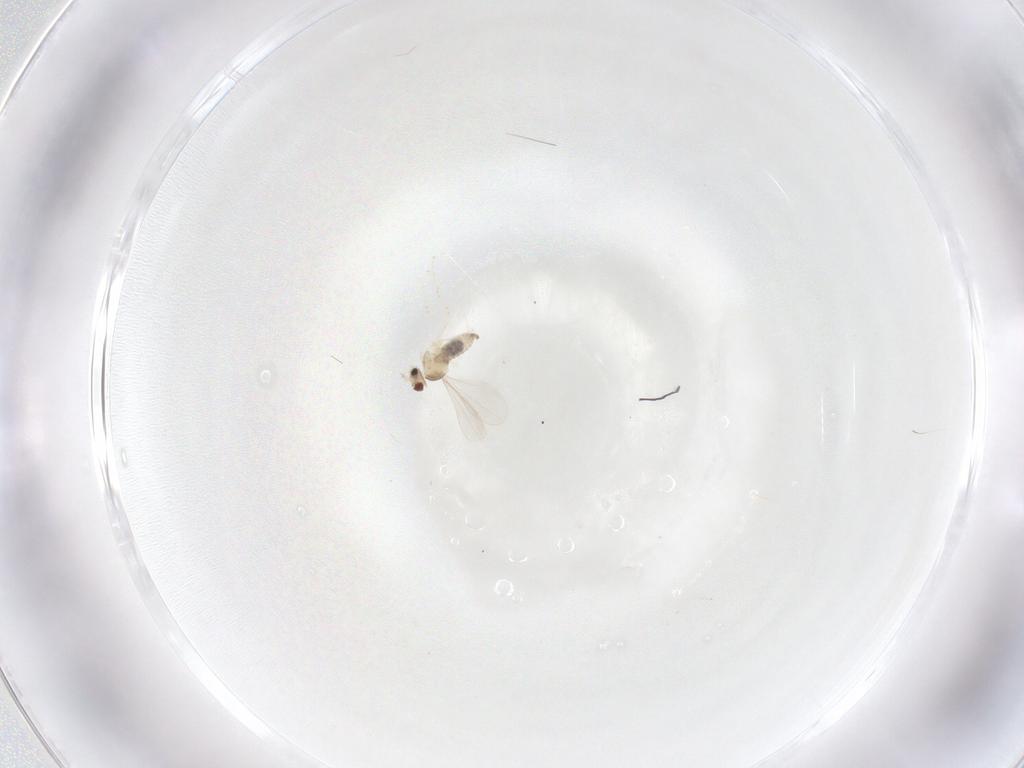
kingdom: Animalia
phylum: Arthropoda
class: Insecta
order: Diptera
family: Cecidomyiidae
